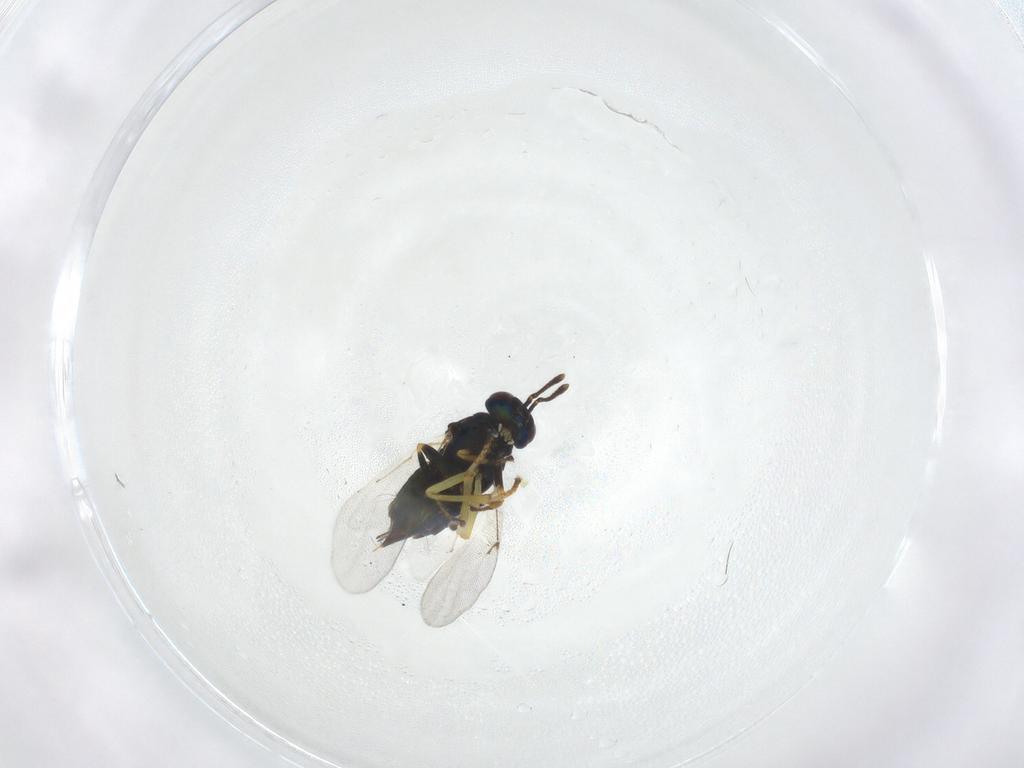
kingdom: Animalia
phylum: Arthropoda
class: Insecta
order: Hymenoptera
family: Encyrtidae
